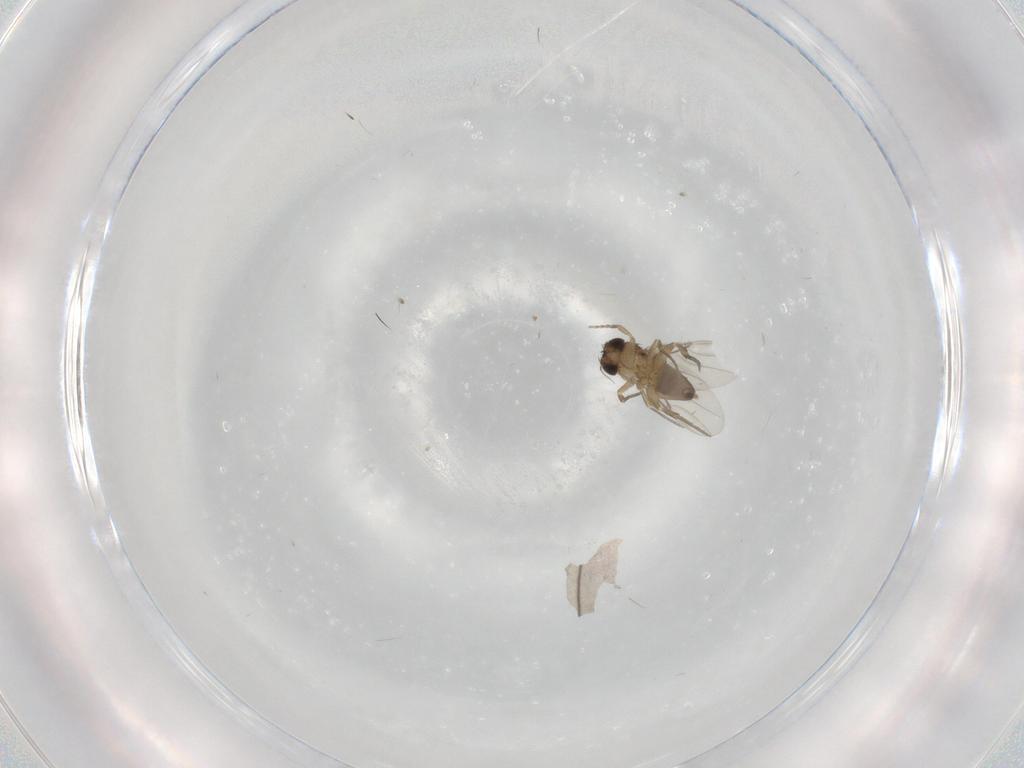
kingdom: Animalia
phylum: Arthropoda
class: Insecta
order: Diptera
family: Phoridae
